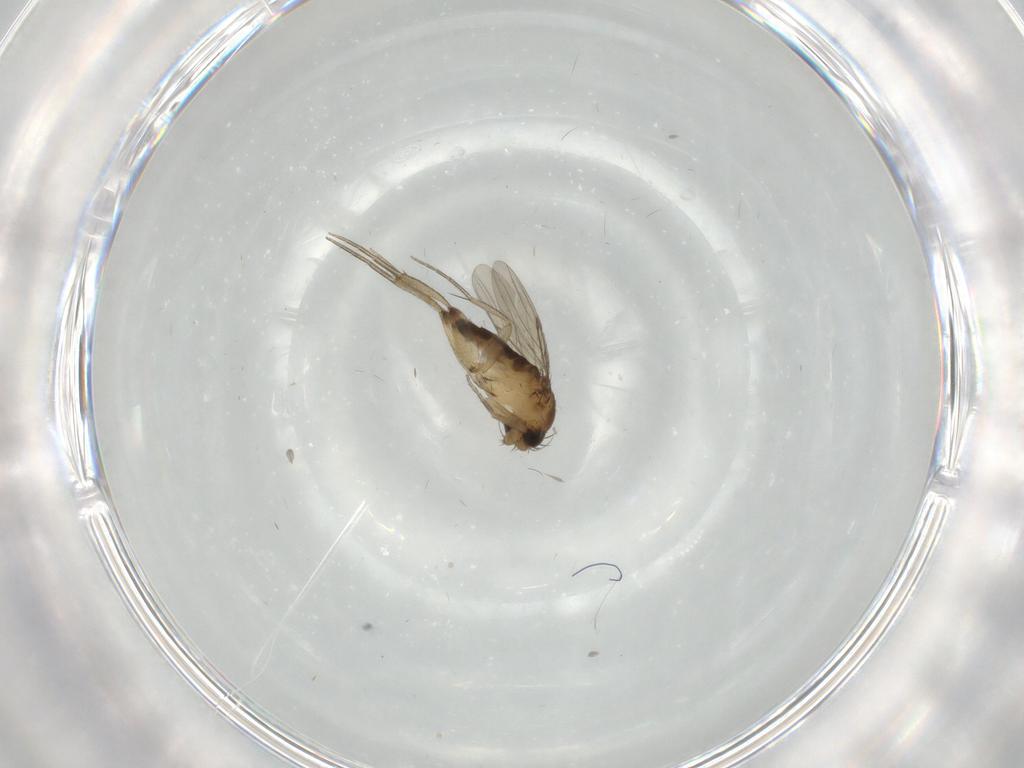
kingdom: Animalia
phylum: Arthropoda
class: Insecta
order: Diptera
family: Phoridae
